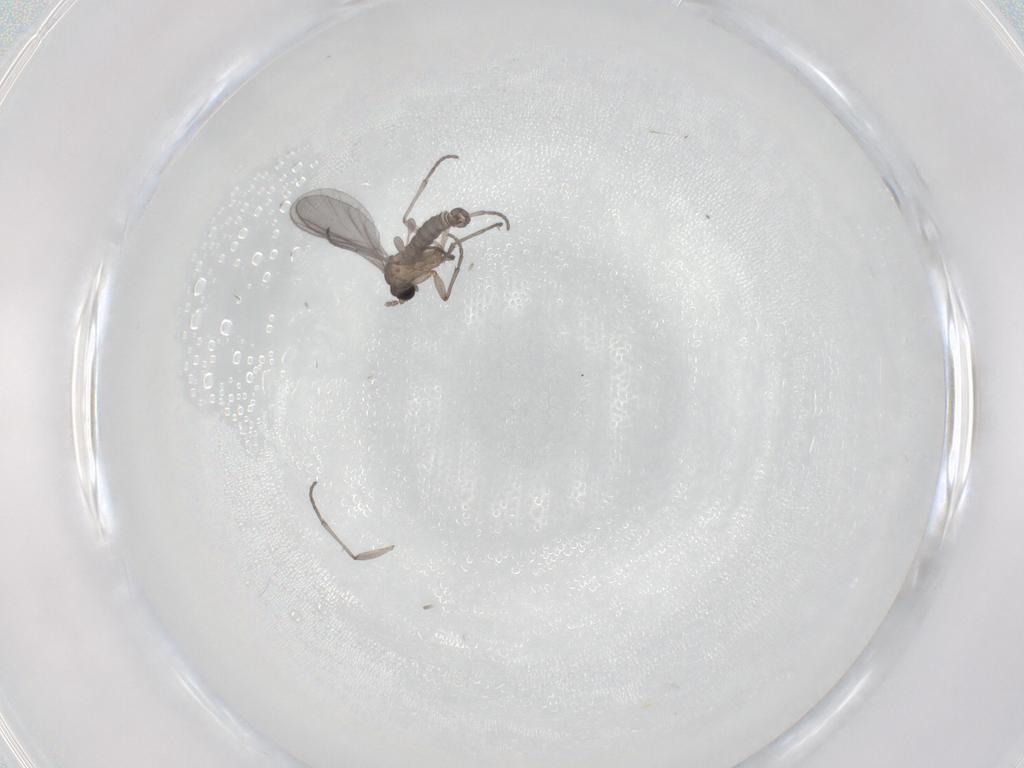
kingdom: Animalia
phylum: Arthropoda
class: Insecta
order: Diptera
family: Sciaridae
